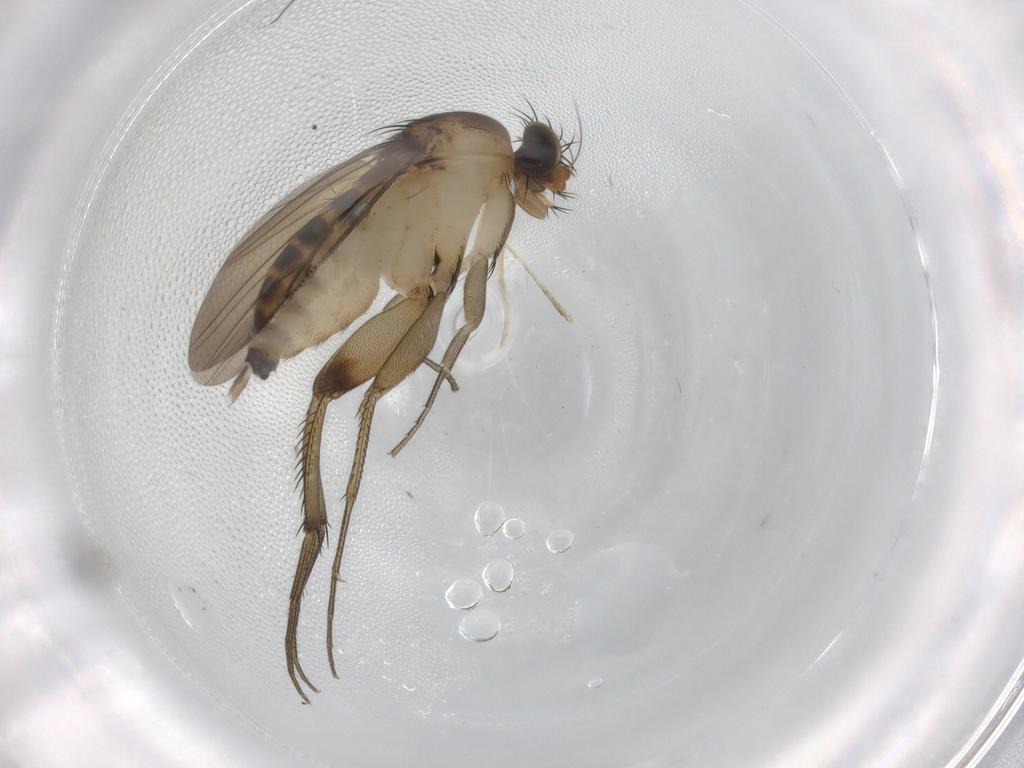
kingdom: Animalia
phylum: Arthropoda
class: Insecta
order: Diptera
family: Phoridae
